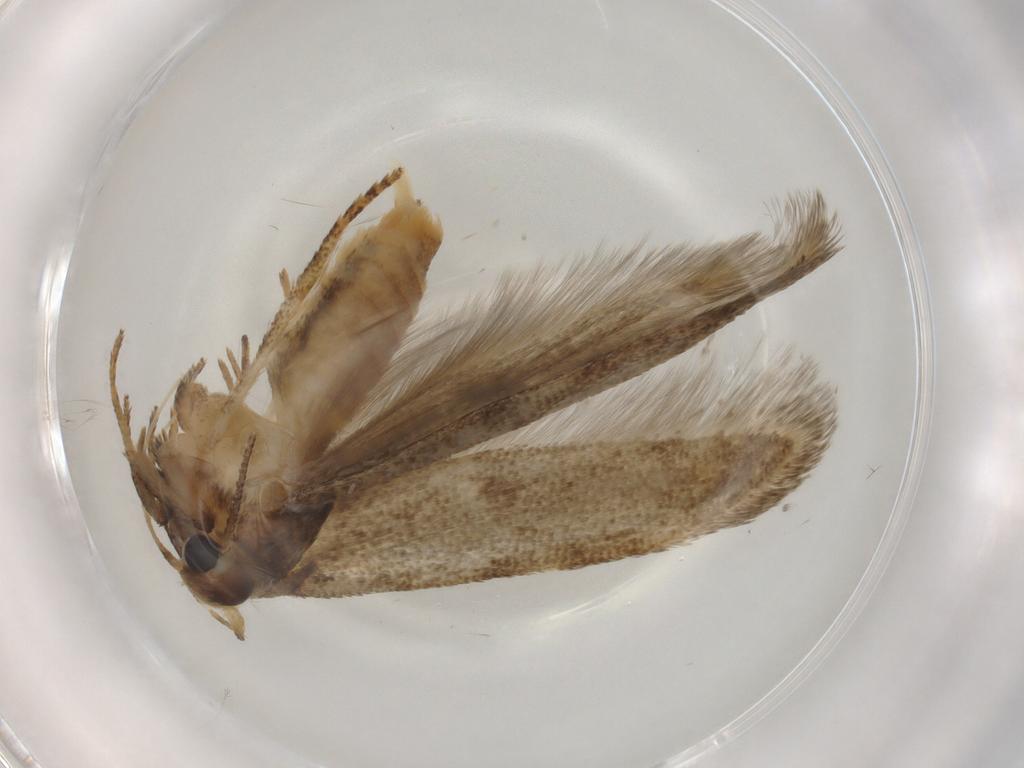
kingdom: Animalia
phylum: Arthropoda
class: Insecta
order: Lepidoptera
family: Blastobasidae
